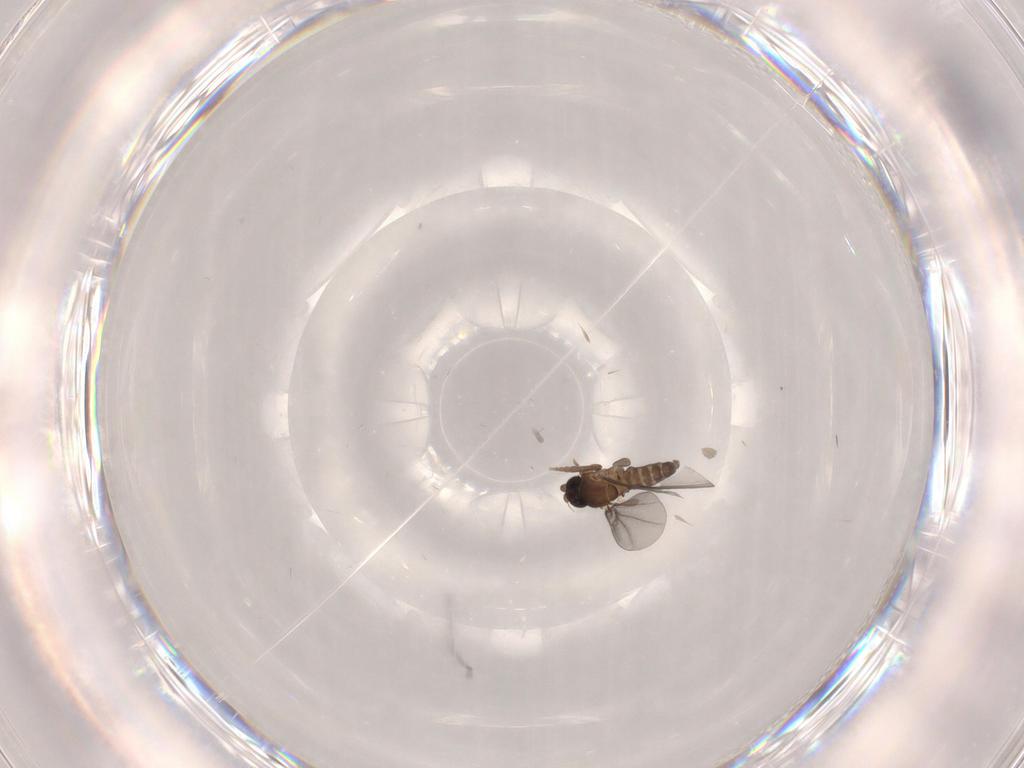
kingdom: Animalia
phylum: Arthropoda
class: Insecta
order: Diptera
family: Phoridae
